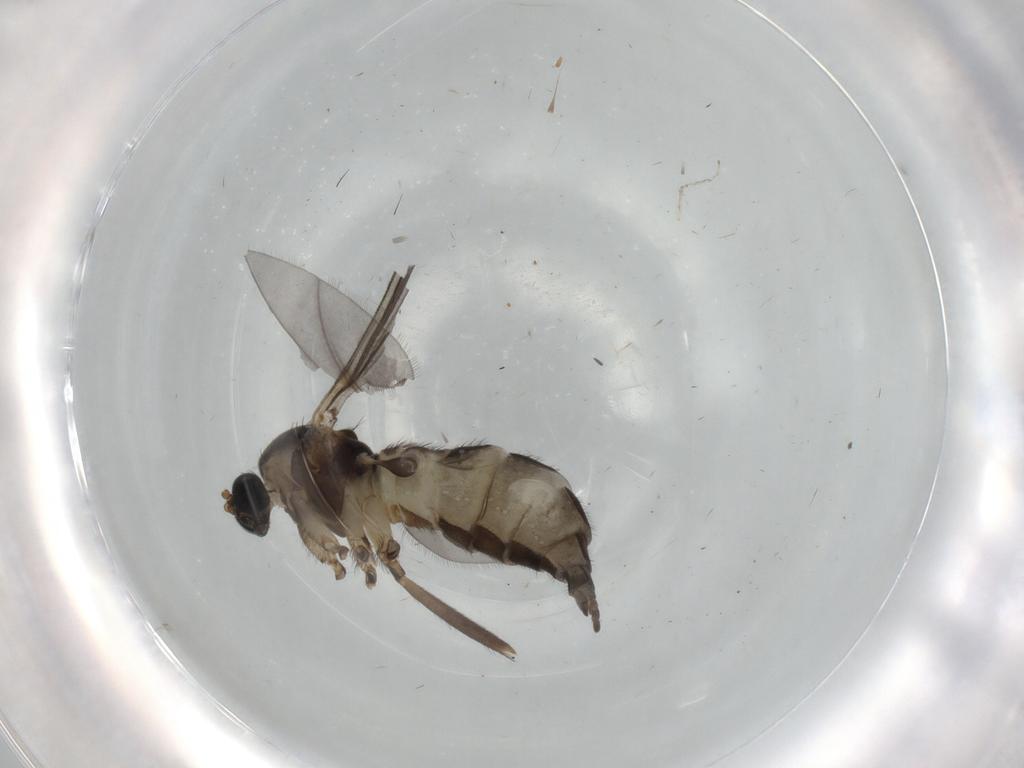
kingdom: Animalia
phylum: Arthropoda
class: Insecta
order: Diptera
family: Sciaridae
